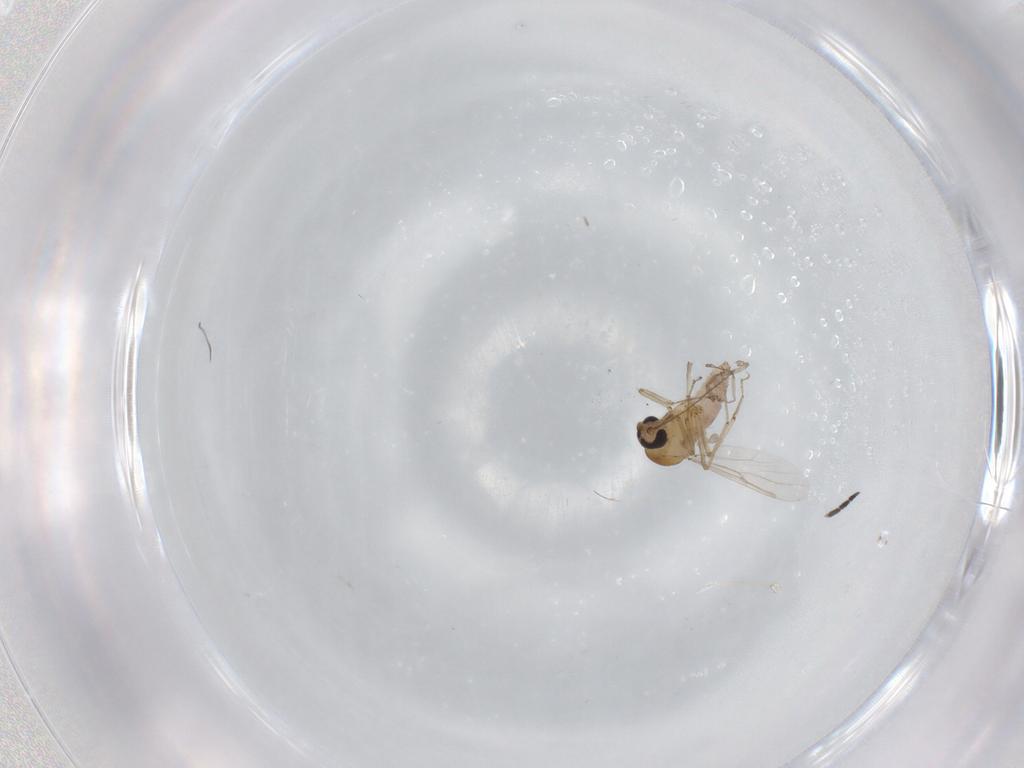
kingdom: Animalia
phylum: Arthropoda
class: Insecta
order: Diptera
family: Sciaridae
